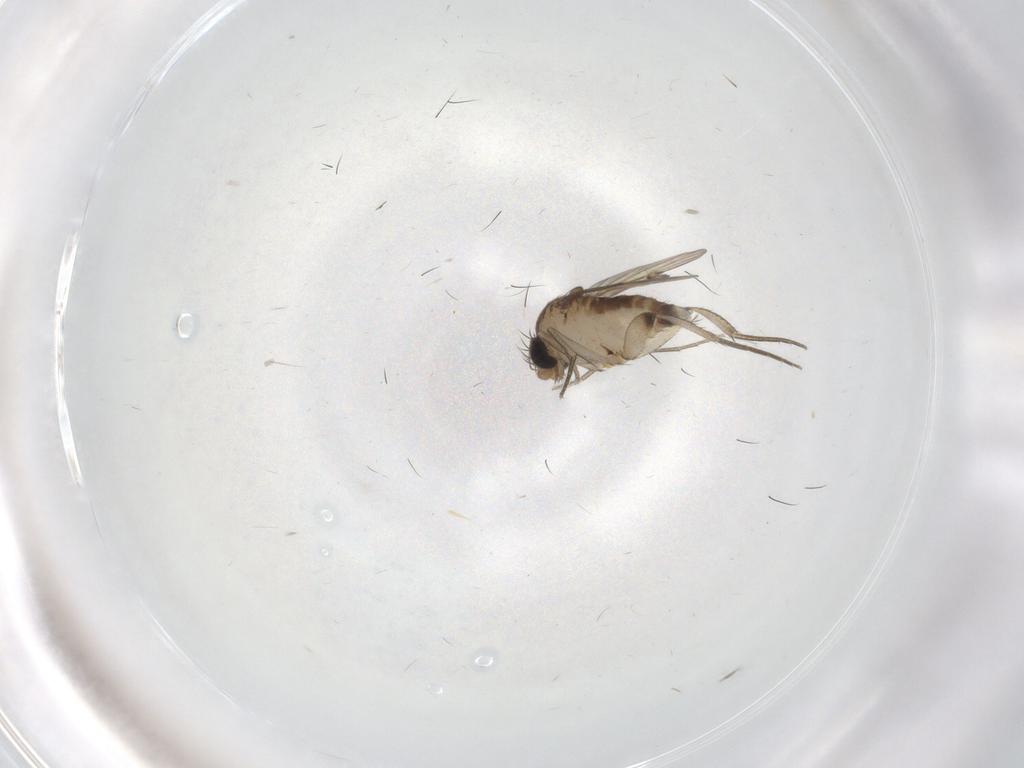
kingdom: Animalia
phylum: Arthropoda
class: Insecta
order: Diptera
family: Phoridae
